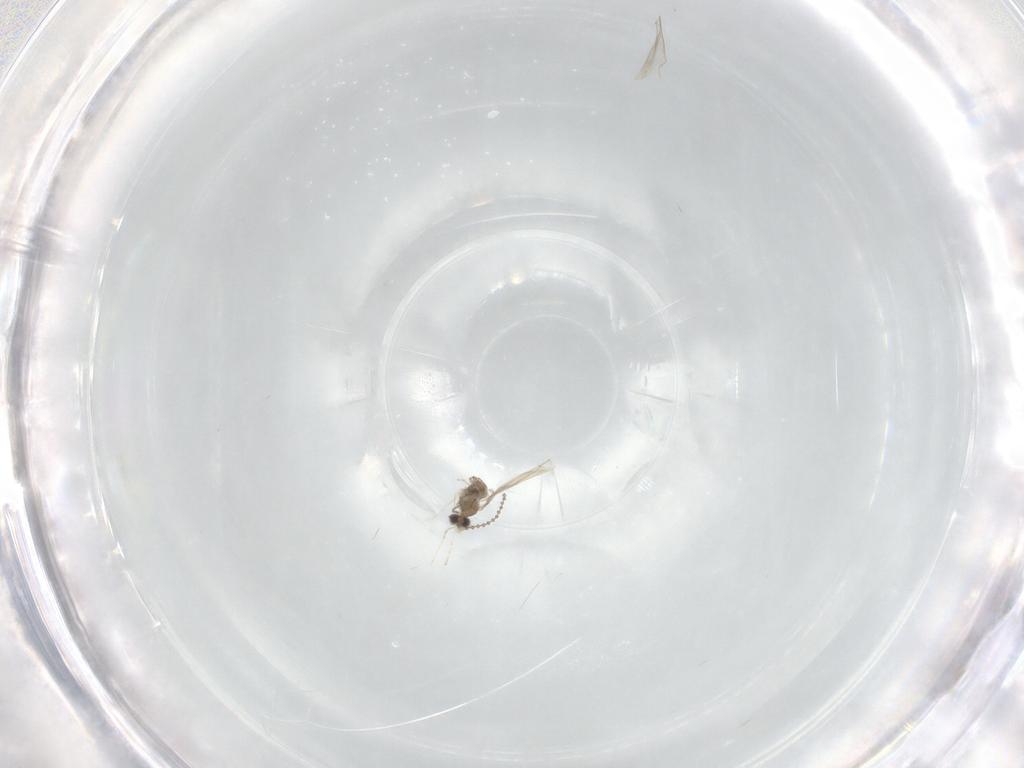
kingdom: Animalia
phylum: Arthropoda
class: Insecta
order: Diptera
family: Cecidomyiidae
